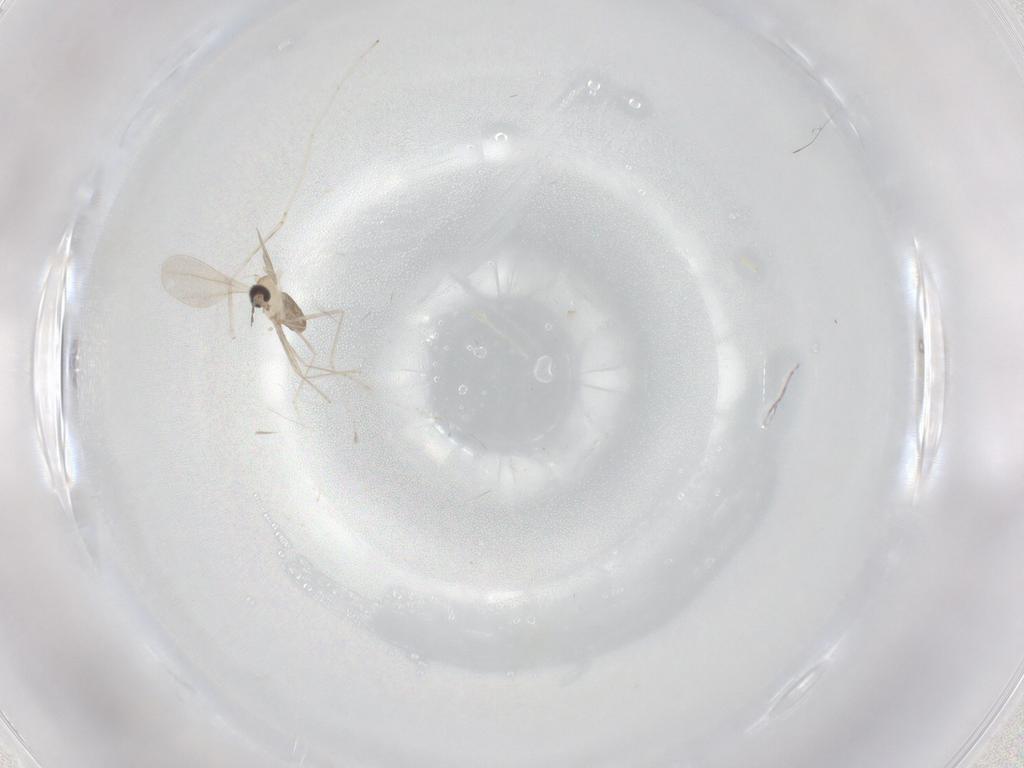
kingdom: Animalia
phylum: Arthropoda
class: Insecta
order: Diptera
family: Cecidomyiidae
